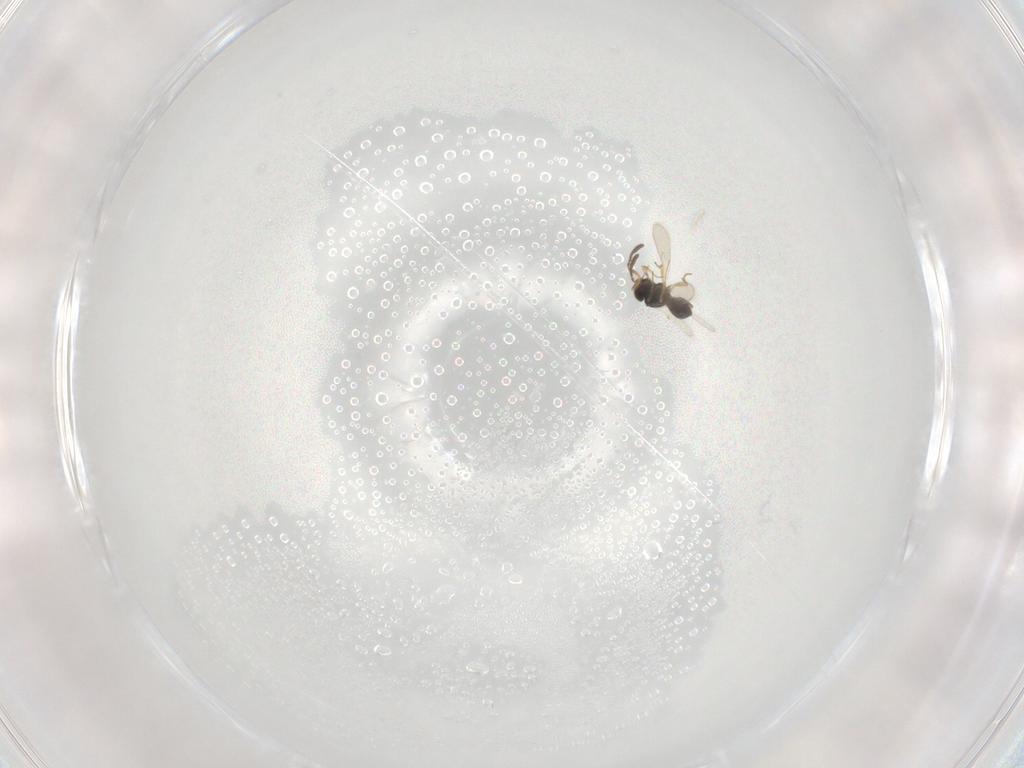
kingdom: Animalia
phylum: Arthropoda
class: Insecta
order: Hymenoptera
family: Scelionidae
